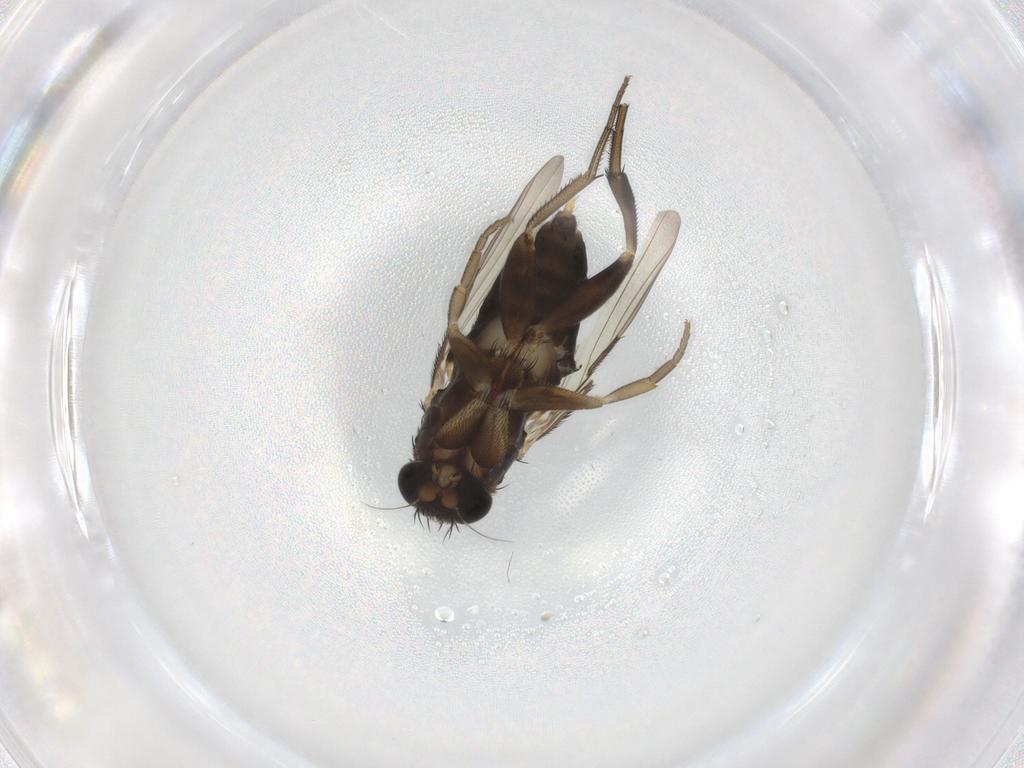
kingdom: Animalia
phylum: Arthropoda
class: Insecta
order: Diptera
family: Phoridae
